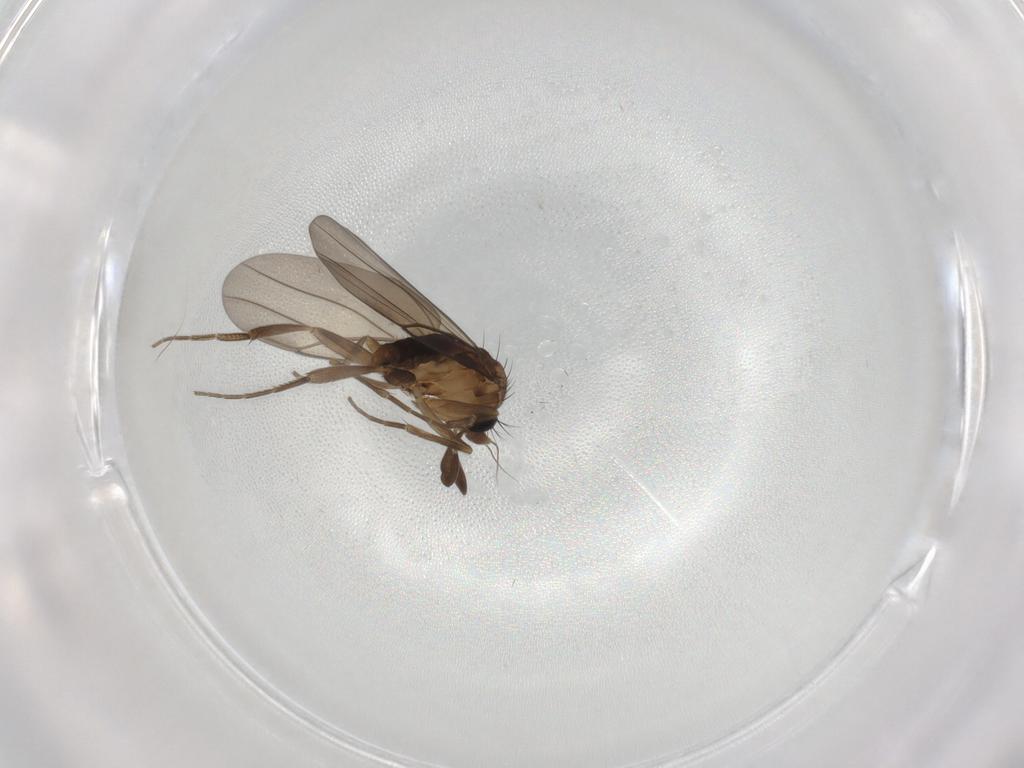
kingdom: Animalia
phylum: Arthropoda
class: Insecta
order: Diptera
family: Phoridae
